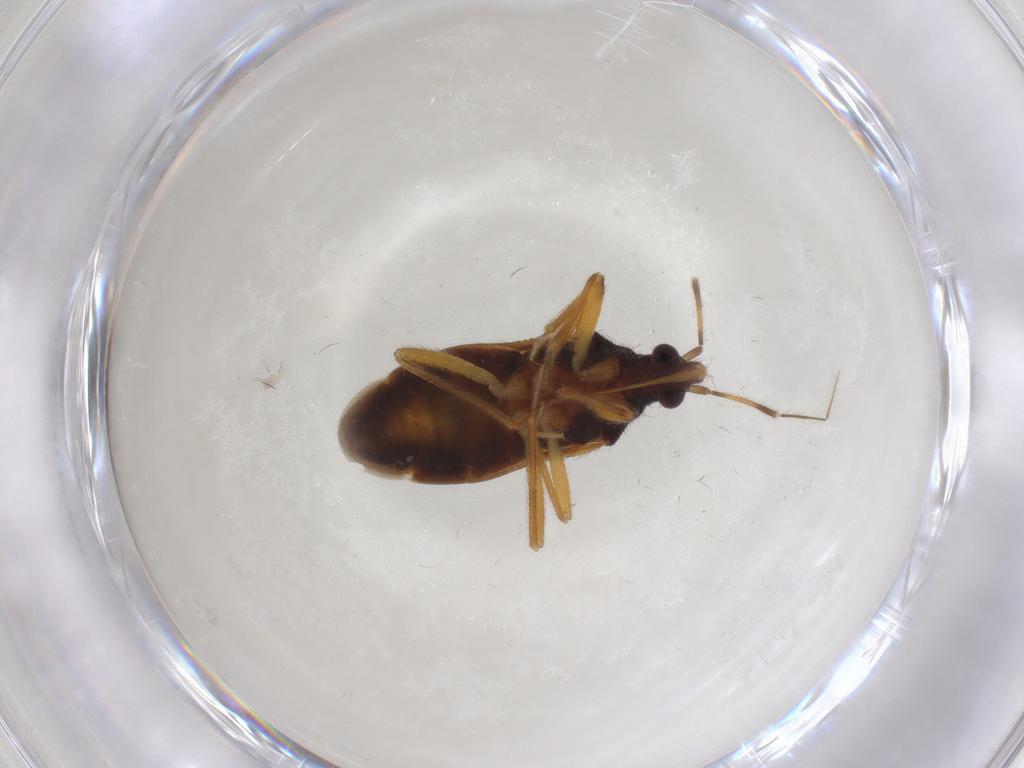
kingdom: Animalia
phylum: Arthropoda
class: Insecta
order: Hemiptera
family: Anthocoridae
